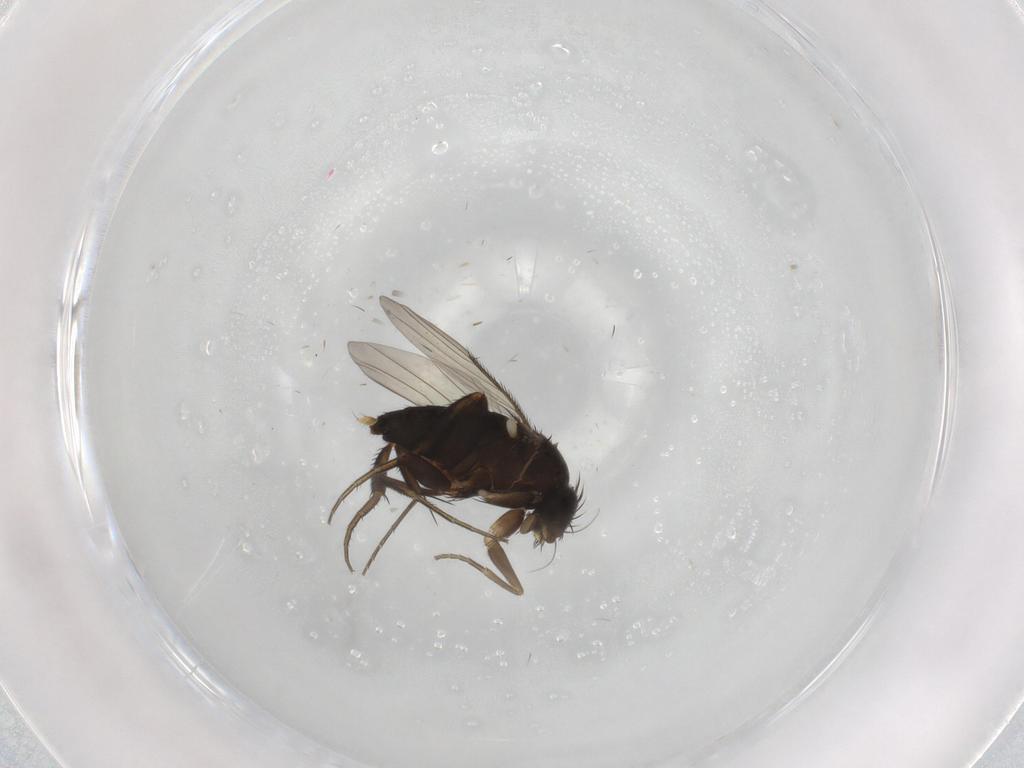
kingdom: Animalia
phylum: Arthropoda
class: Insecta
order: Diptera
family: Phoridae
